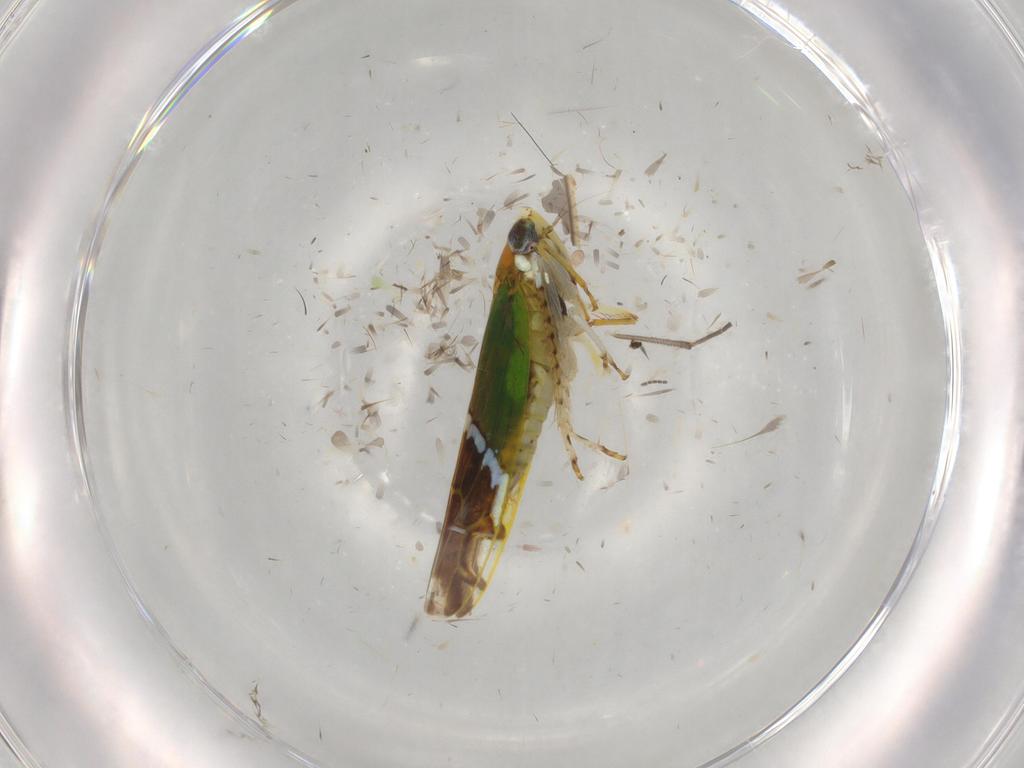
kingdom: Animalia
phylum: Arthropoda
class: Insecta
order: Hemiptera
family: Cicadellidae
